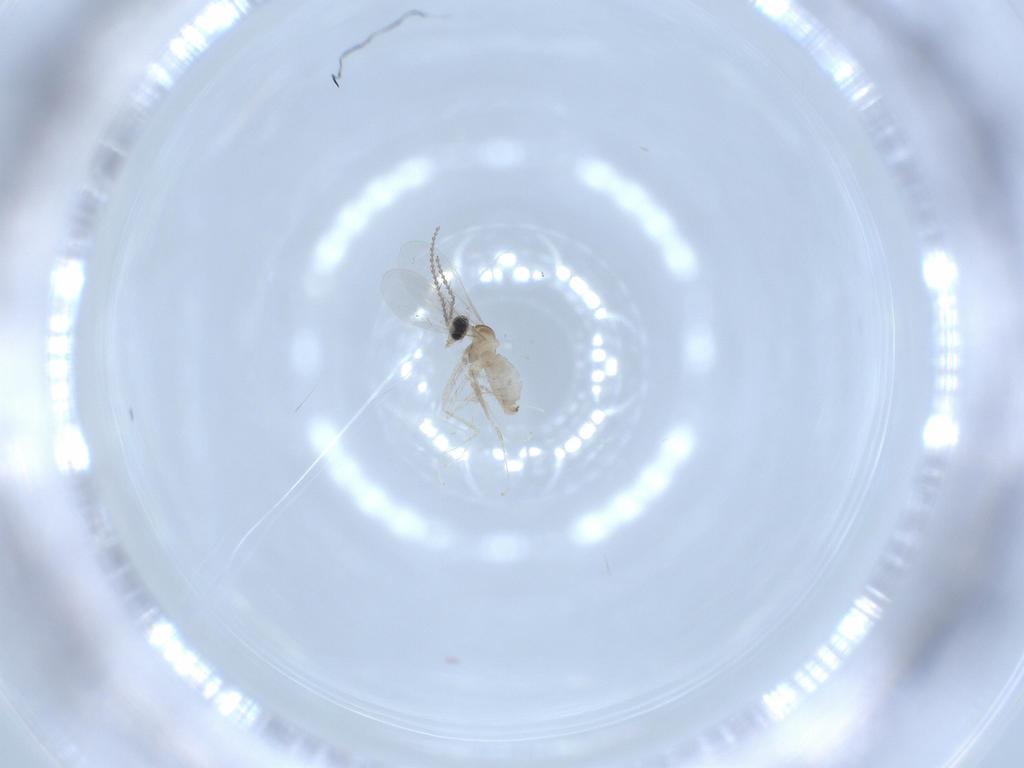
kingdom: Animalia
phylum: Arthropoda
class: Insecta
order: Diptera
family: Cecidomyiidae
